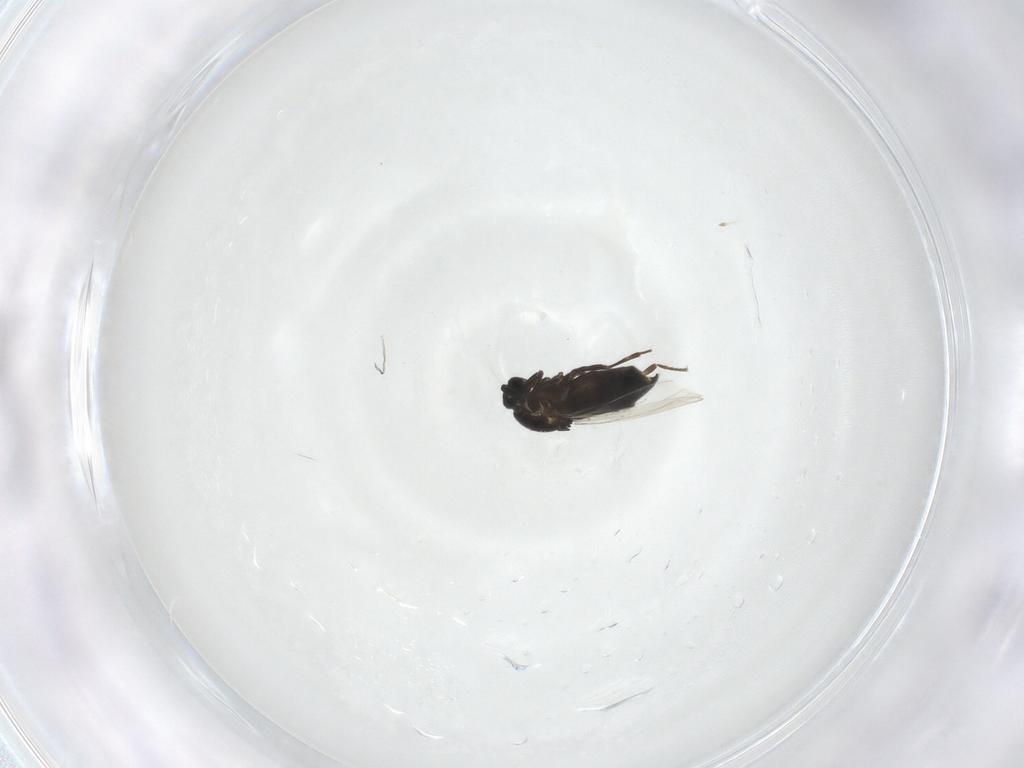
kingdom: Animalia
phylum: Arthropoda
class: Insecta
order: Diptera
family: Scatopsidae
